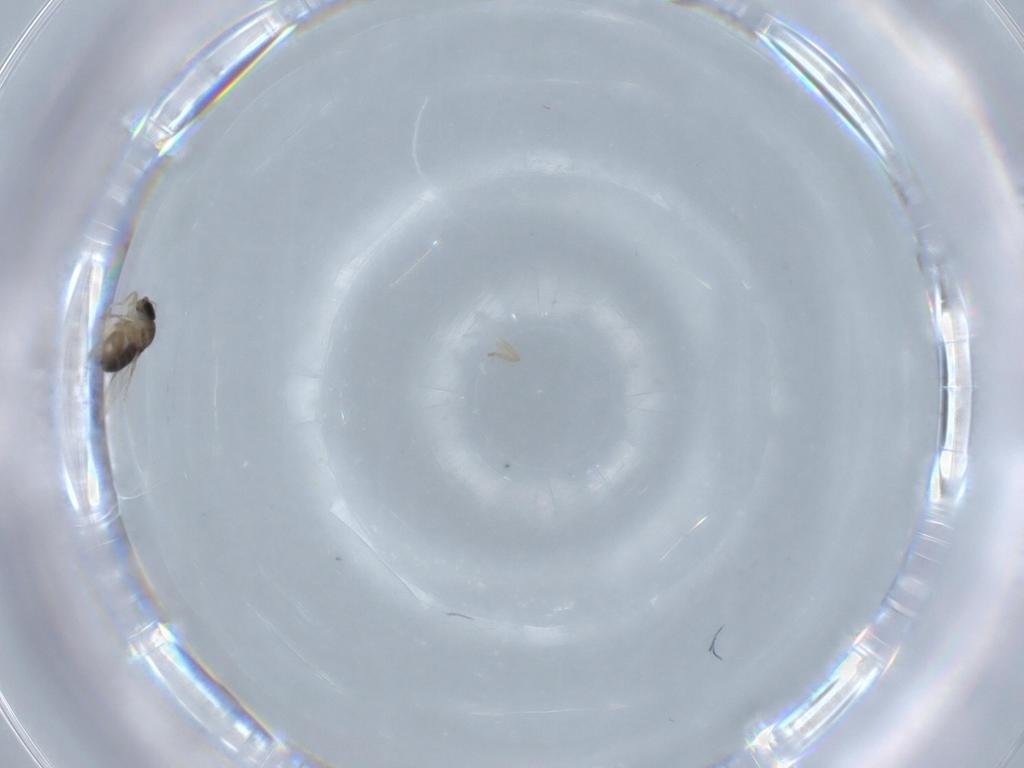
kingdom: Animalia
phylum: Arthropoda
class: Insecta
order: Diptera
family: Phoridae
